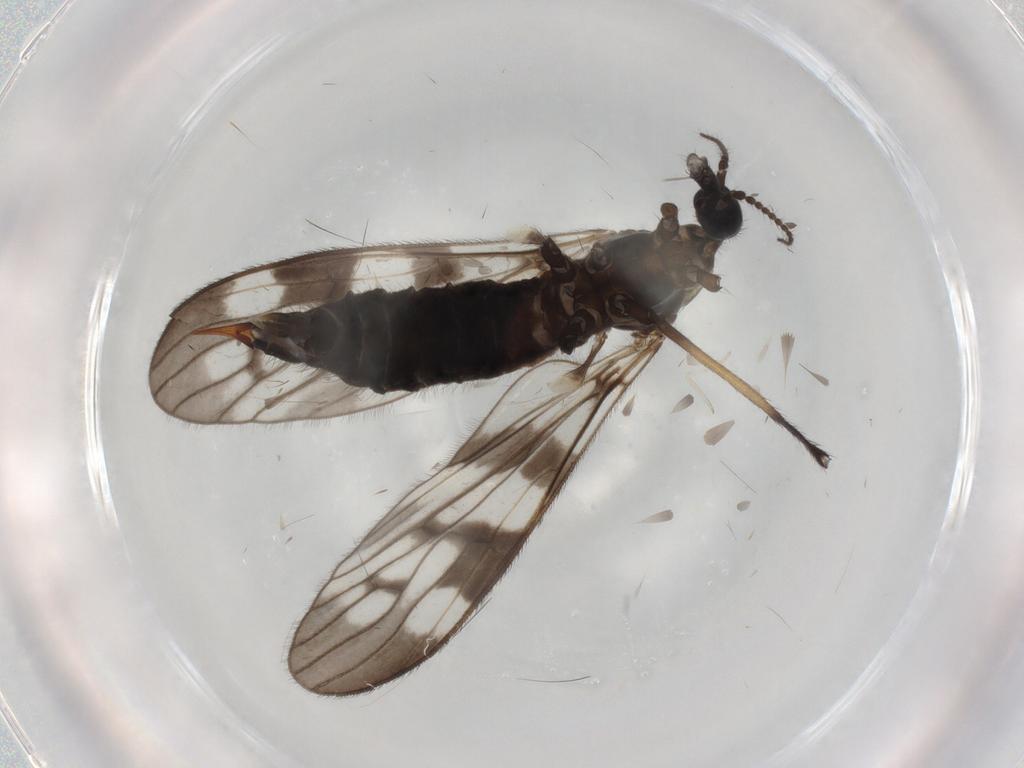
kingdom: Animalia
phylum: Arthropoda
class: Insecta
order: Diptera
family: Sciaridae
